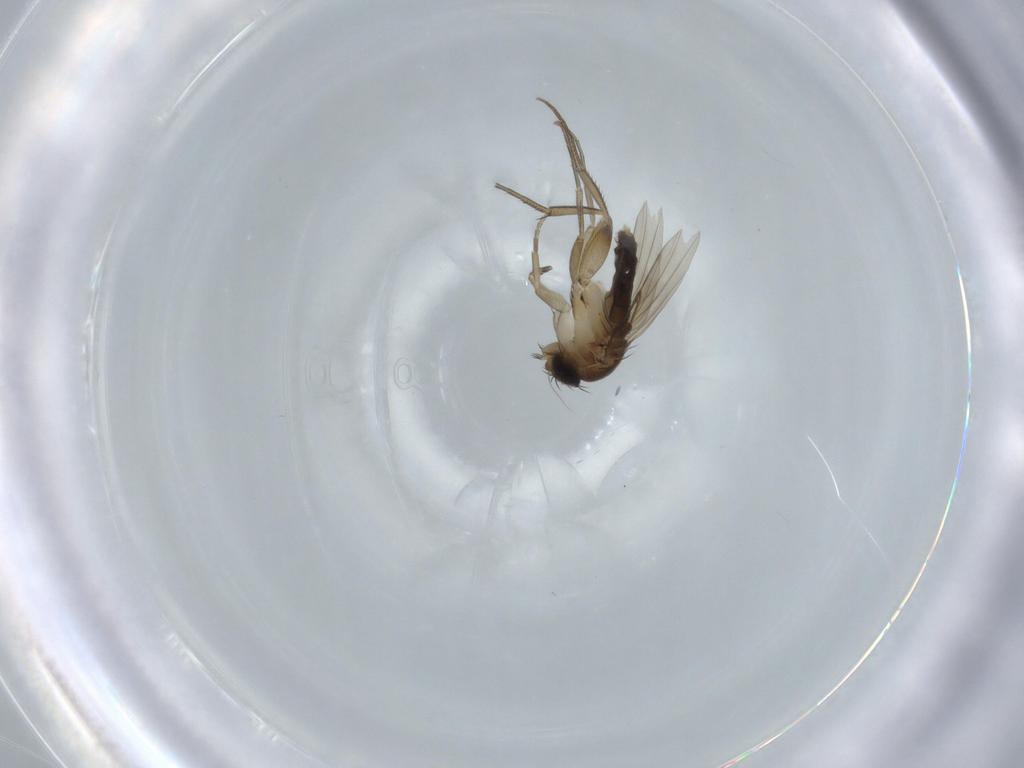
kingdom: Animalia
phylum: Arthropoda
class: Insecta
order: Diptera
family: Phoridae
